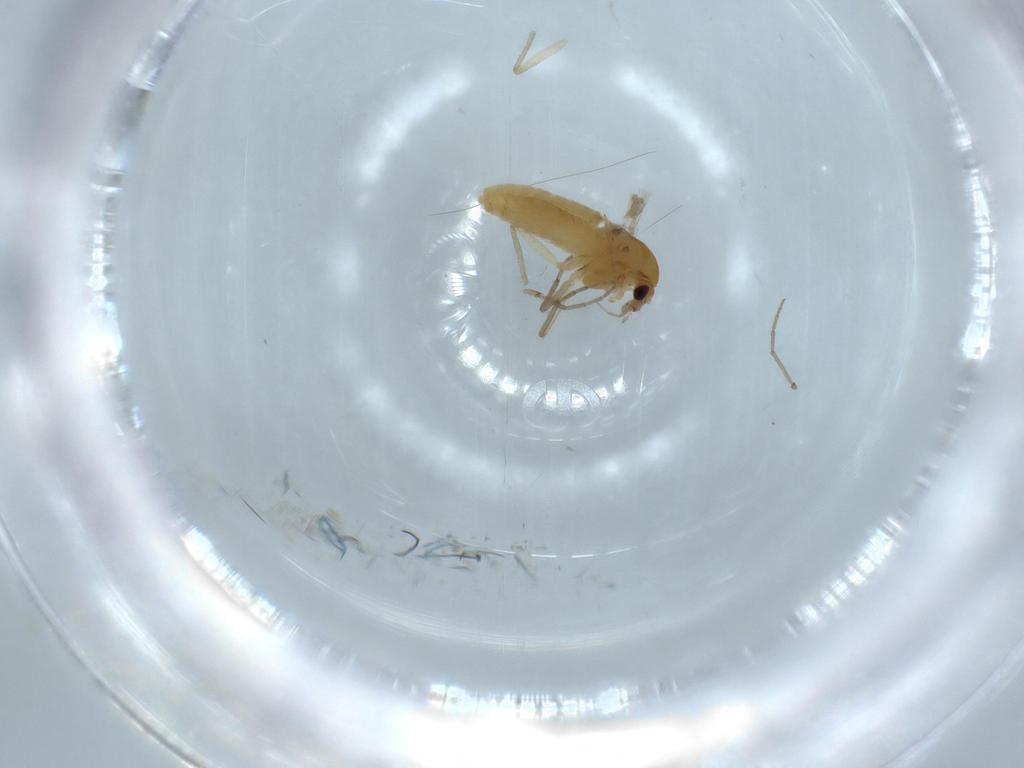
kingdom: Animalia
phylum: Arthropoda
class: Insecta
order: Diptera
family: Chironomidae
